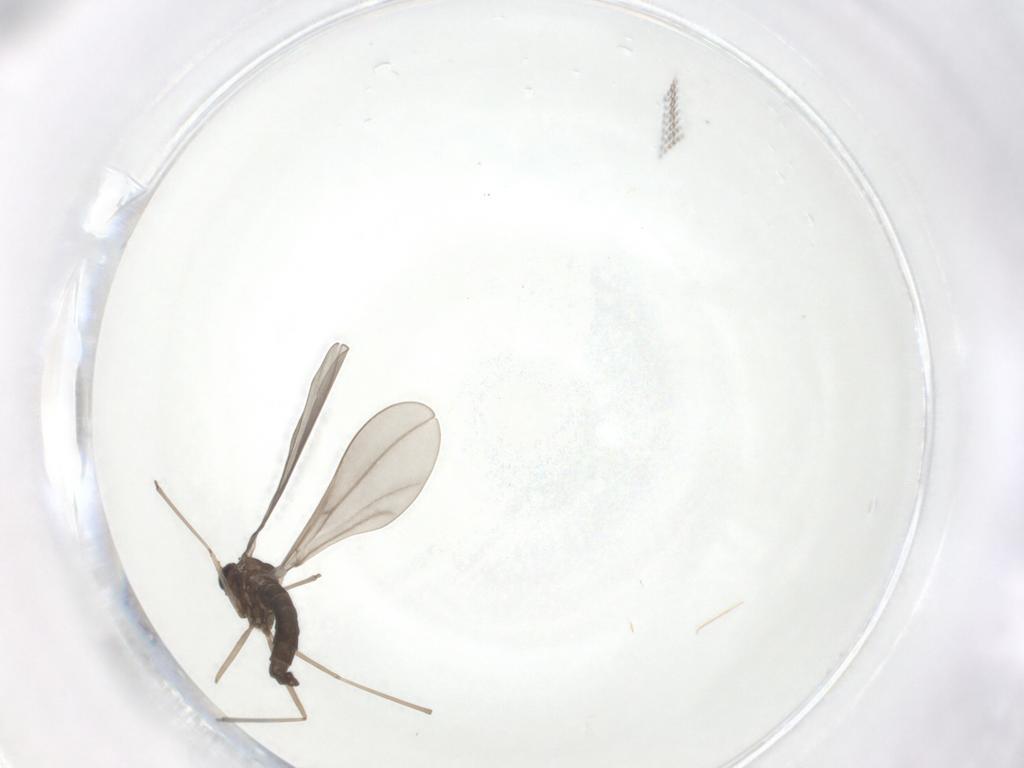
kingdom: Animalia
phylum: Arthropoda
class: Insecta
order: Diptera
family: Cecidomyiidae
